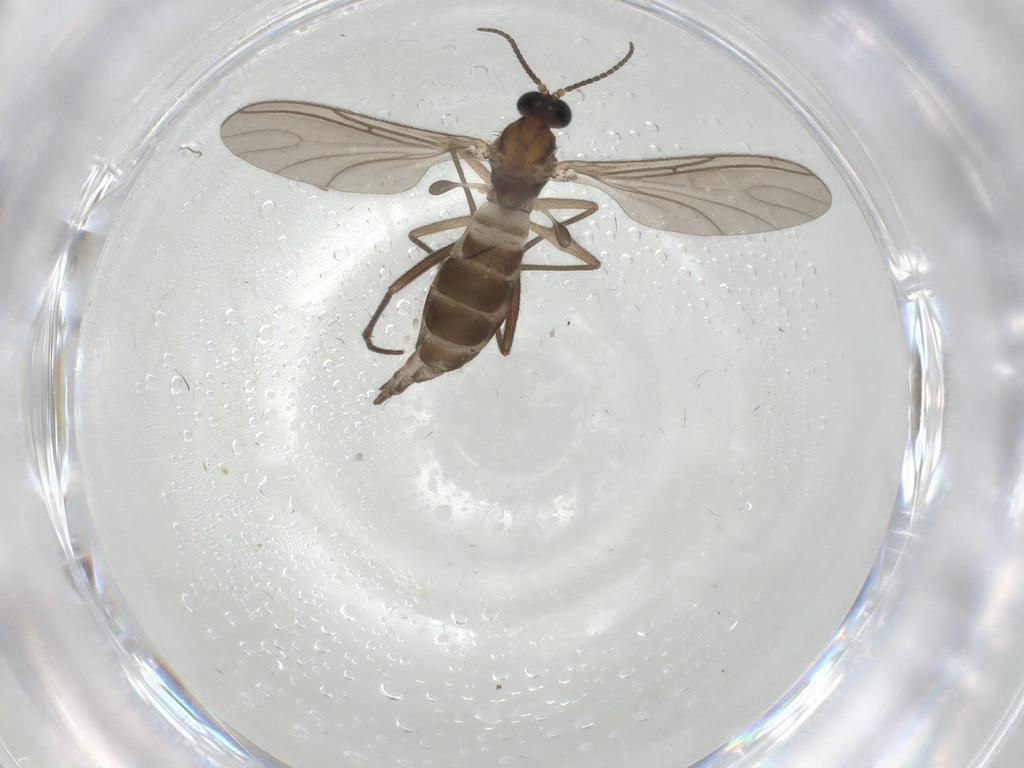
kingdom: Animalia
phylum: Arthropoda
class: Insecta
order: Diptera
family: Sciaridae
